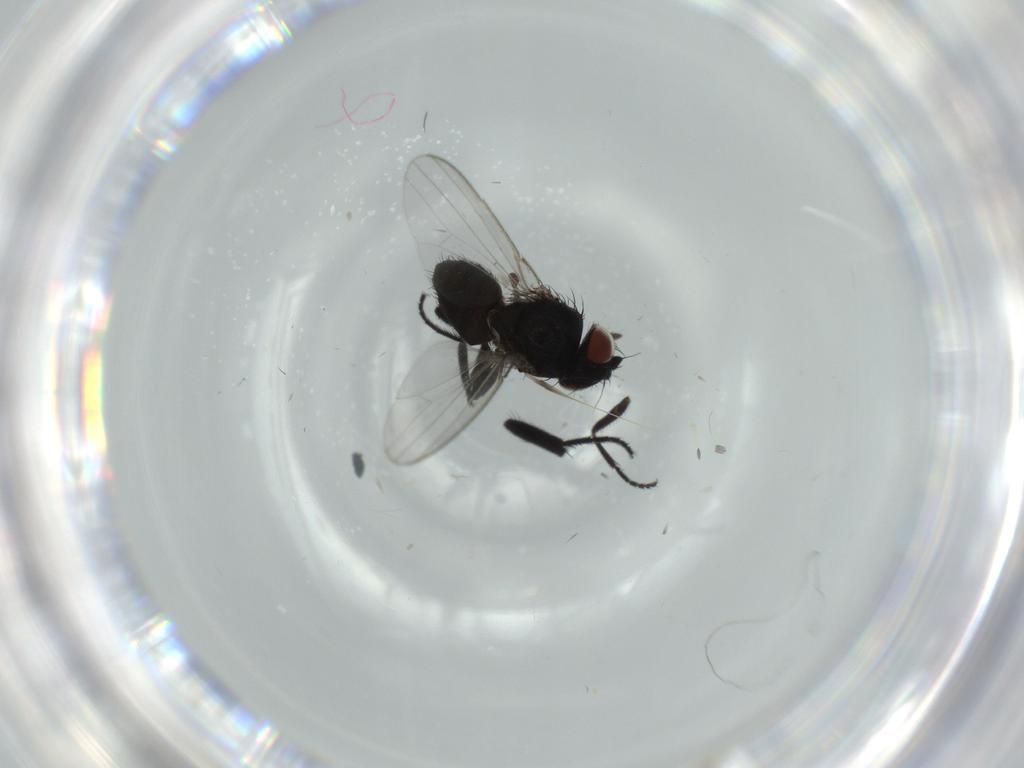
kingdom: Animalia
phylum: Arthropoda
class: Insecta
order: Diptera
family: Milichiidae
